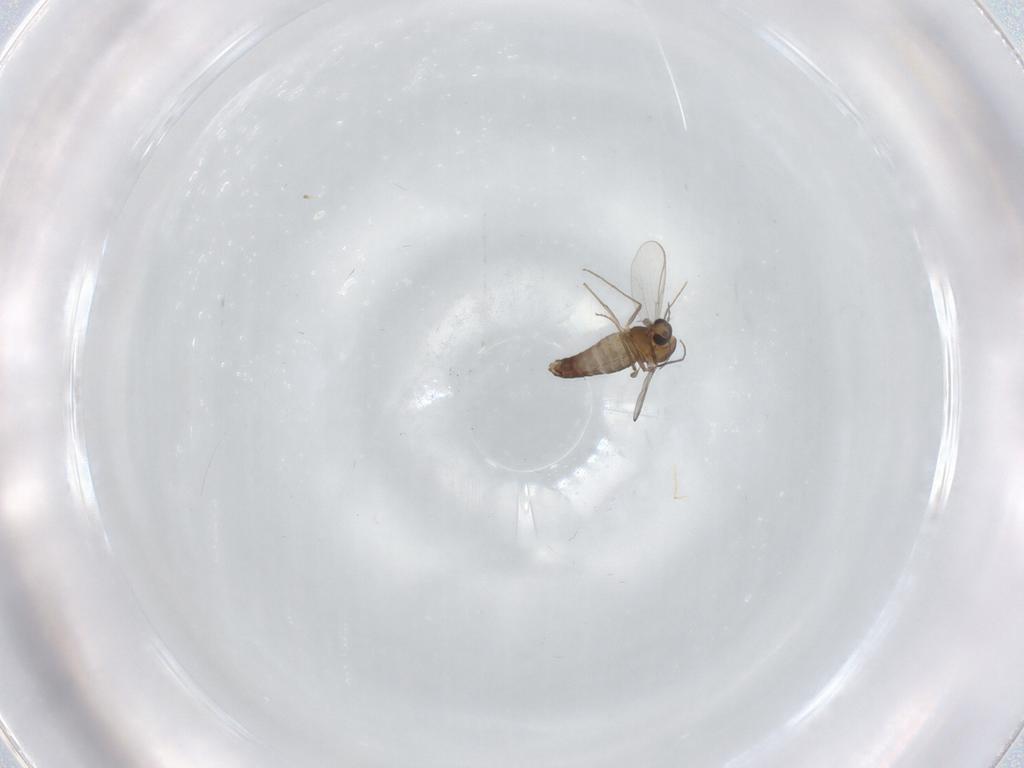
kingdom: Animalia
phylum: Arthropoda
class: Insecta
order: Diptera
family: Chironomidae
